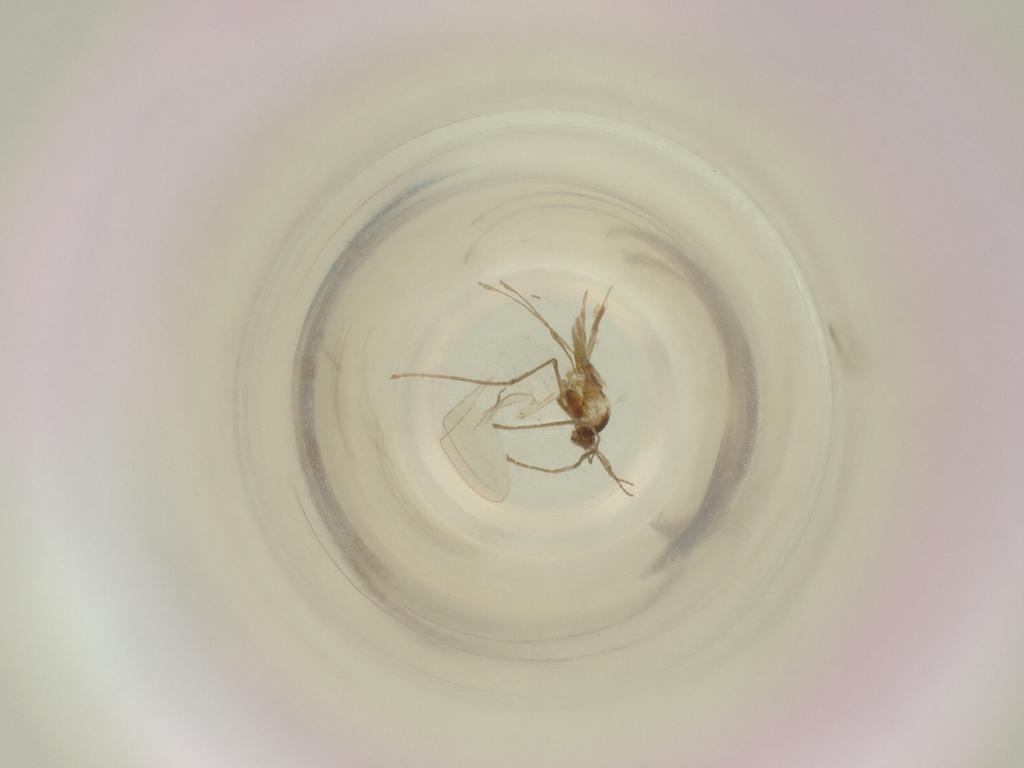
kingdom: Animalia
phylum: Arthropoda
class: Insecta
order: Diptera
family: Cecidomyiidae
